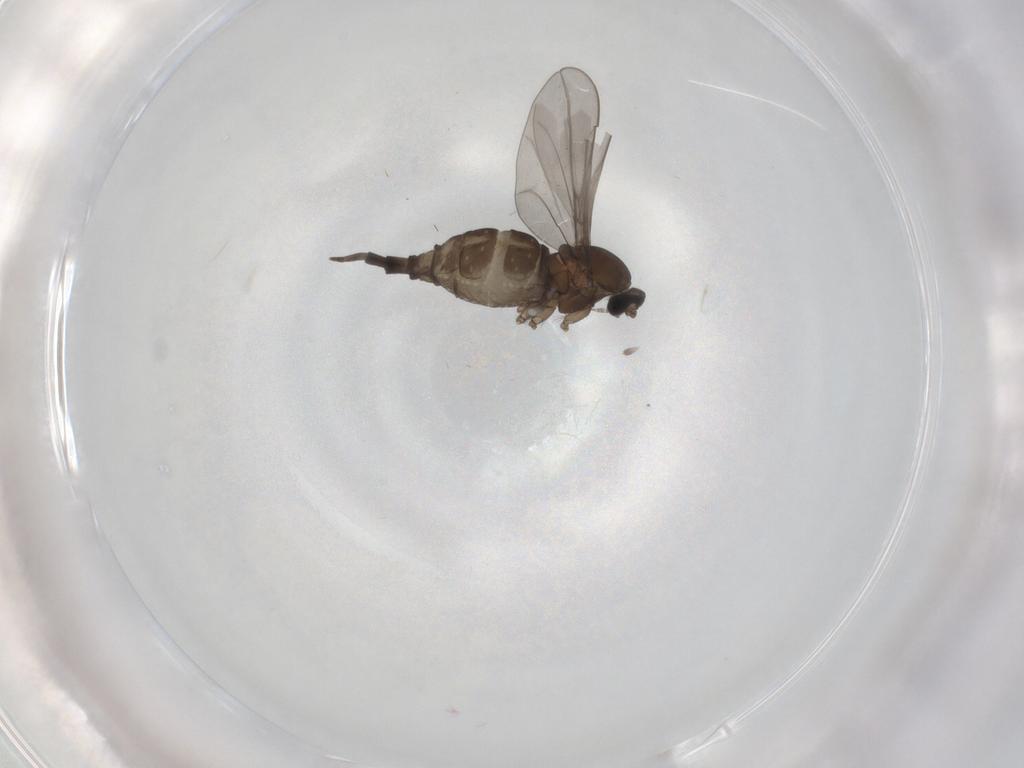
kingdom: Animalia
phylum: Arthropoda
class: Insecta
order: Diptera
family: Cecidomyiidae
